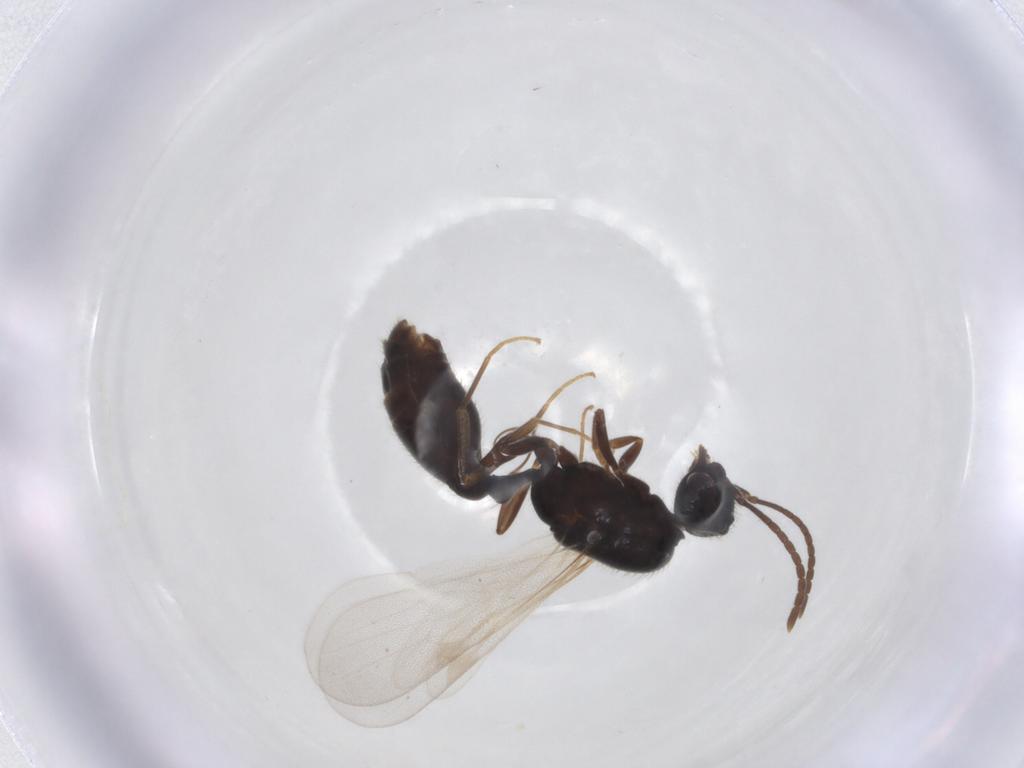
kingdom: Animalia
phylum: Arthropoda
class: Insecta
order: Hymenoptera
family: Formicidae
